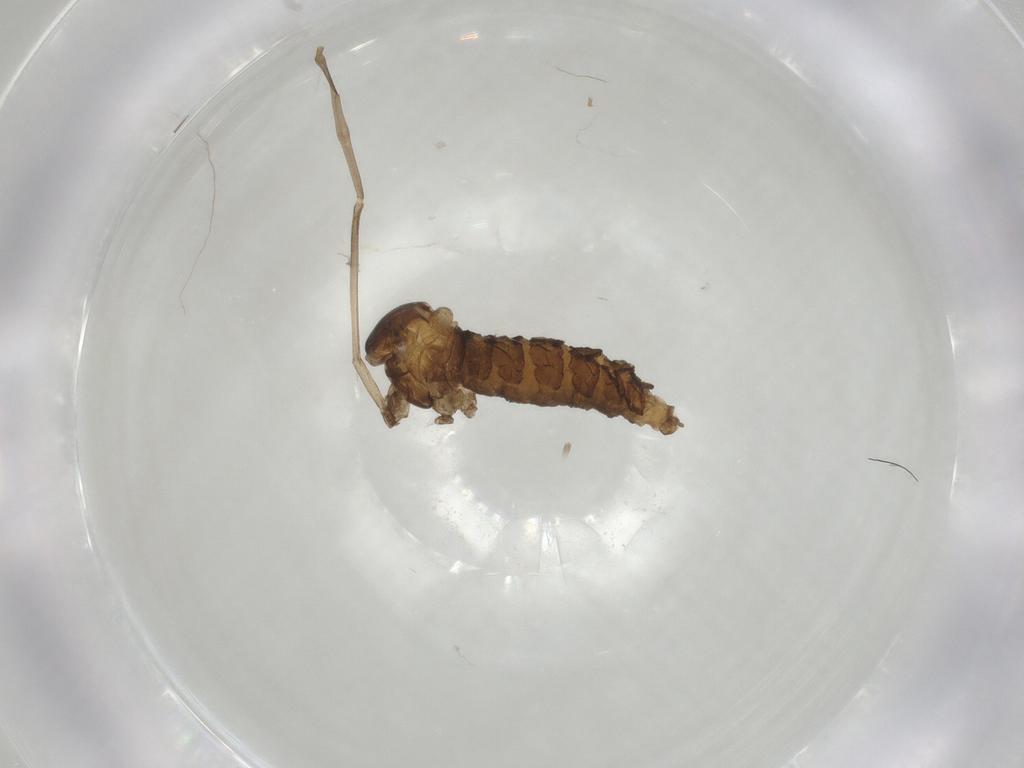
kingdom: Animalia
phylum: Arthropoda
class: Insecta
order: Diptera
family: Cecidomyiidae
